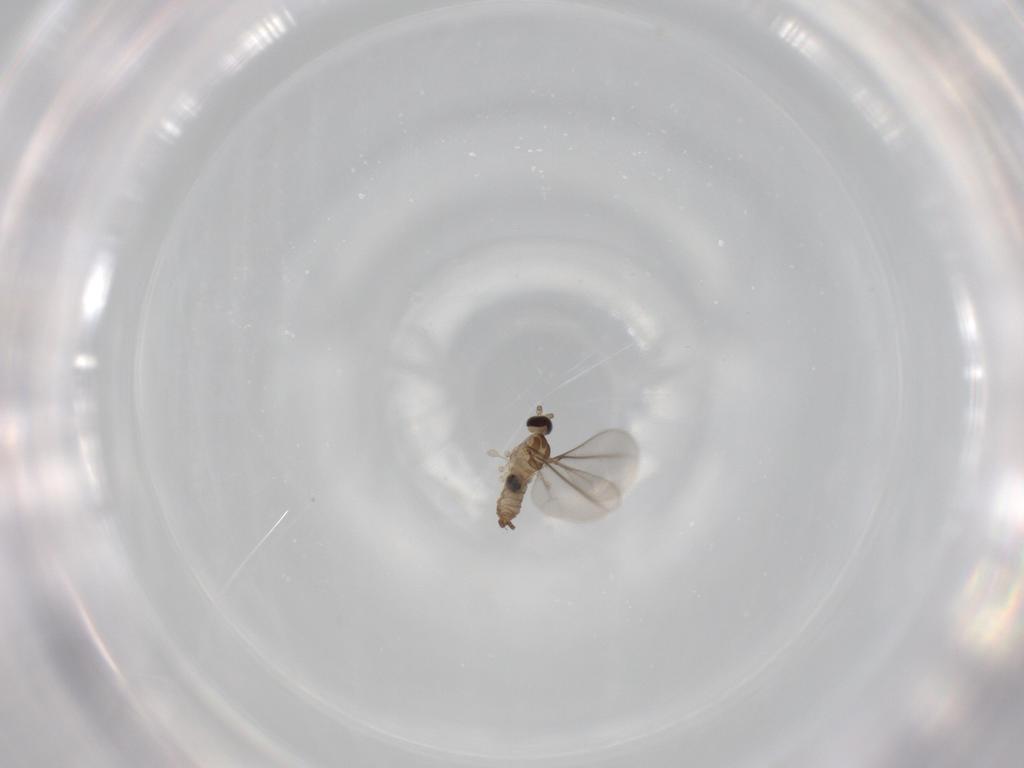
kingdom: Animalia
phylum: Arthropoda
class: Insecta
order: Diptera
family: Cecidomyiidae
